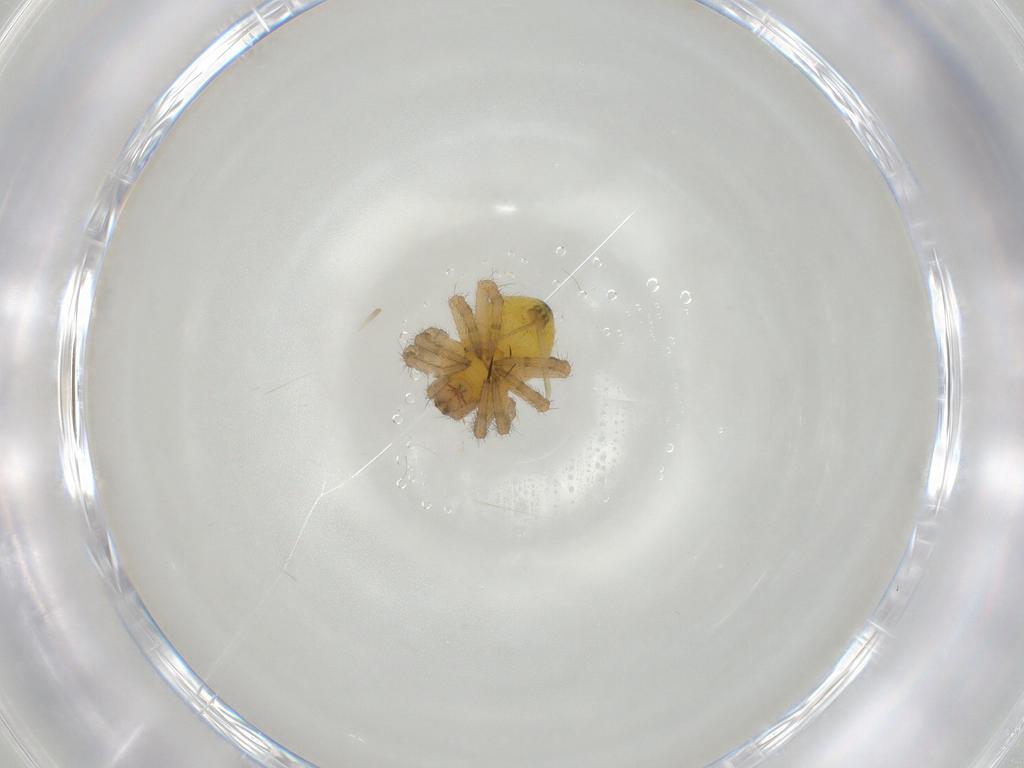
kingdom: Animalia
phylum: Arthropoda
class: Arachnida
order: Araneae
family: Araneidae
